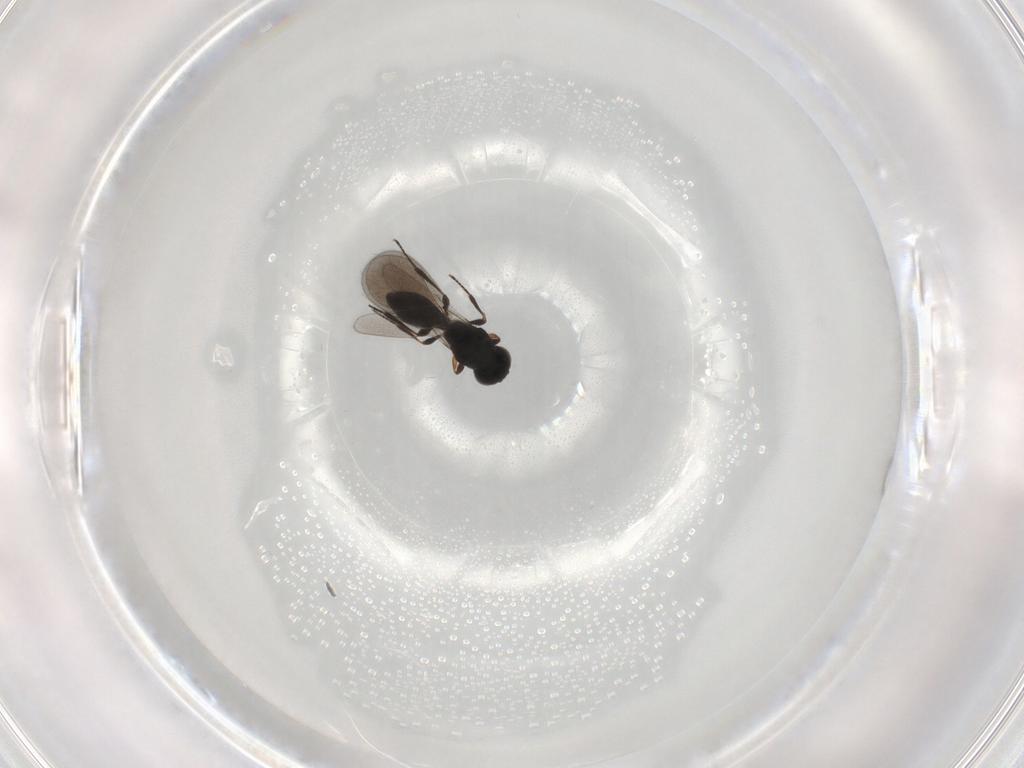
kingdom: Animalia
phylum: Arthropoda
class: Insecta
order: Hymenoptera
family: Platygastridae
